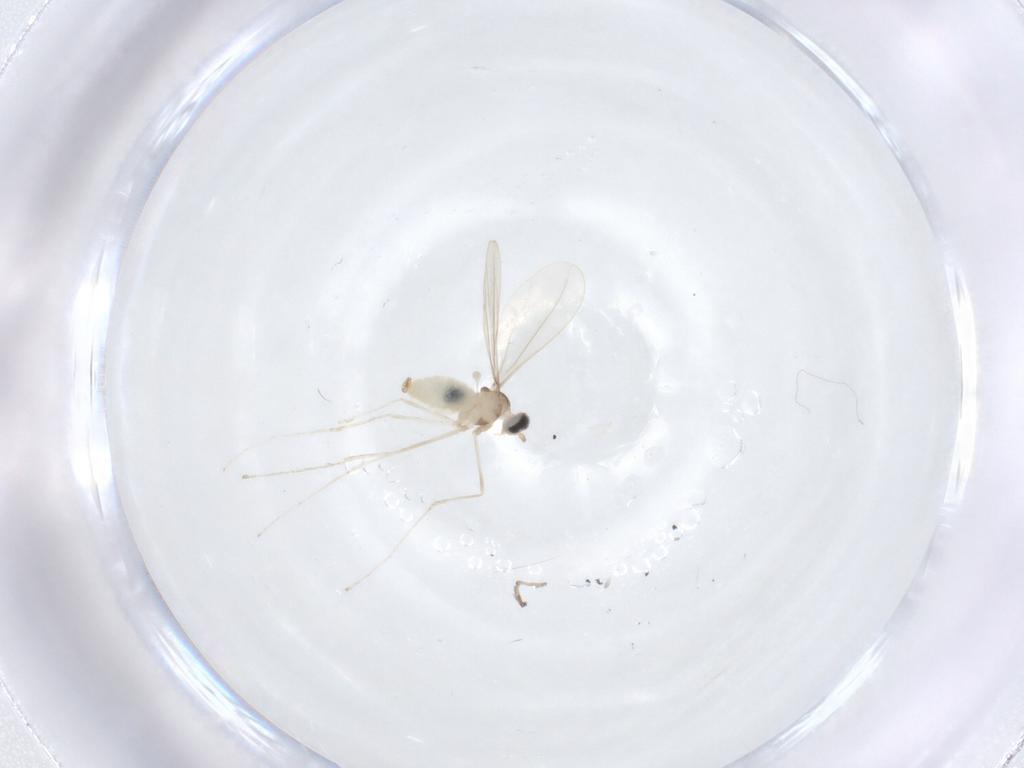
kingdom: Animalia
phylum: Arthropoda
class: Insecta
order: Diptera
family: Cecidomyiidae
